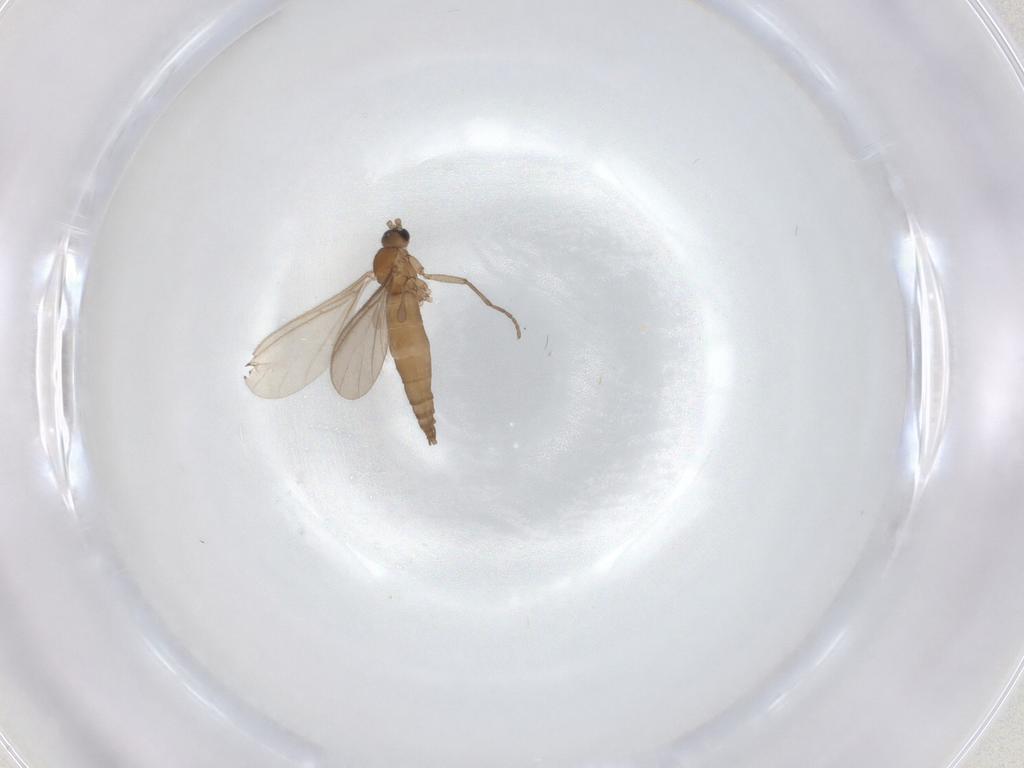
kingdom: Animalia
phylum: Arthropoda
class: Insecta
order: Diptera
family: Sciaridae
